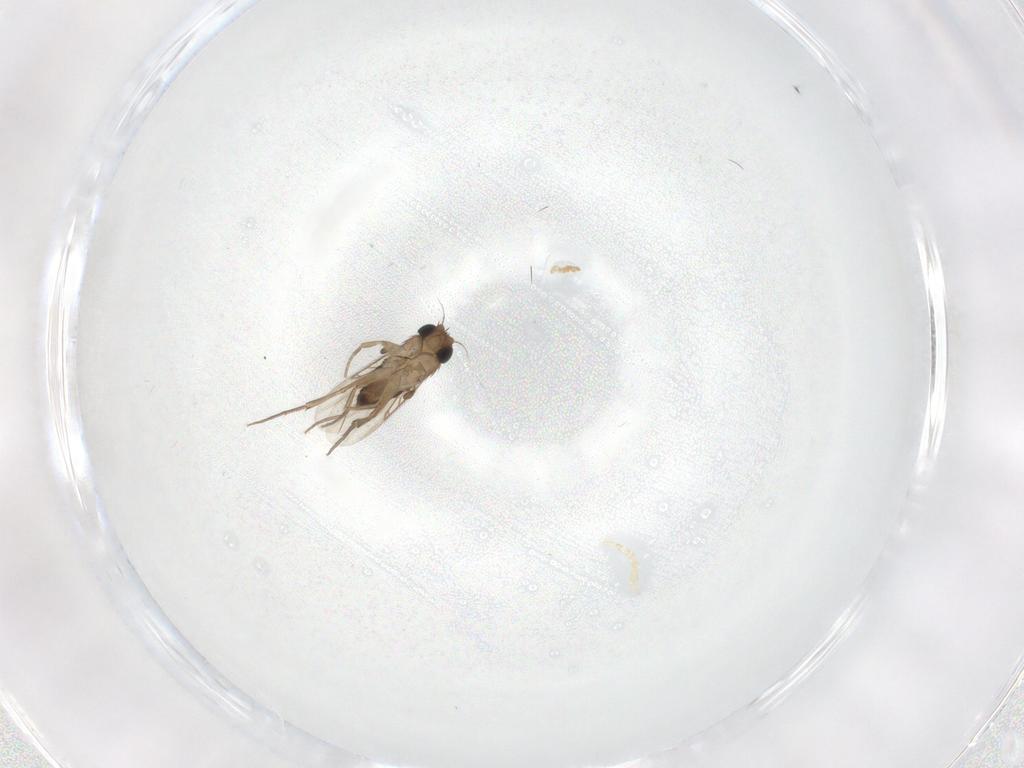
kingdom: Animalia
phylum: Arthropoda
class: Insecta
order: Diptera
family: Phoridae
